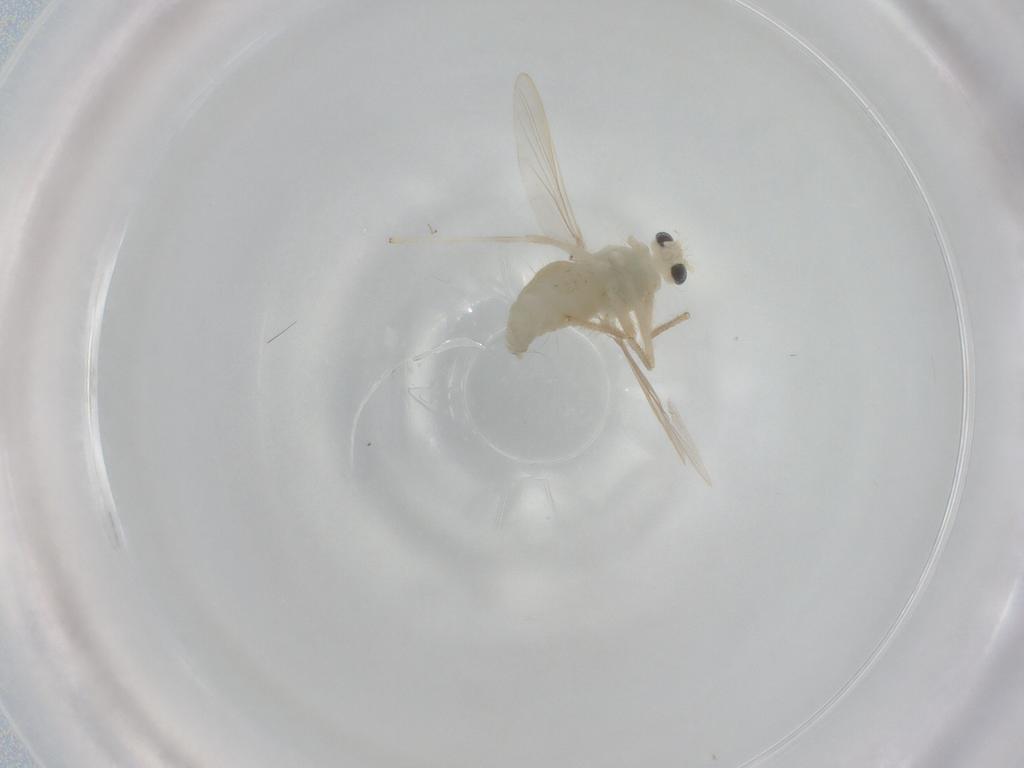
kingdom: Animalia
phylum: Arthropoda
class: Insecta
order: Diptera
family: Chironomidae
